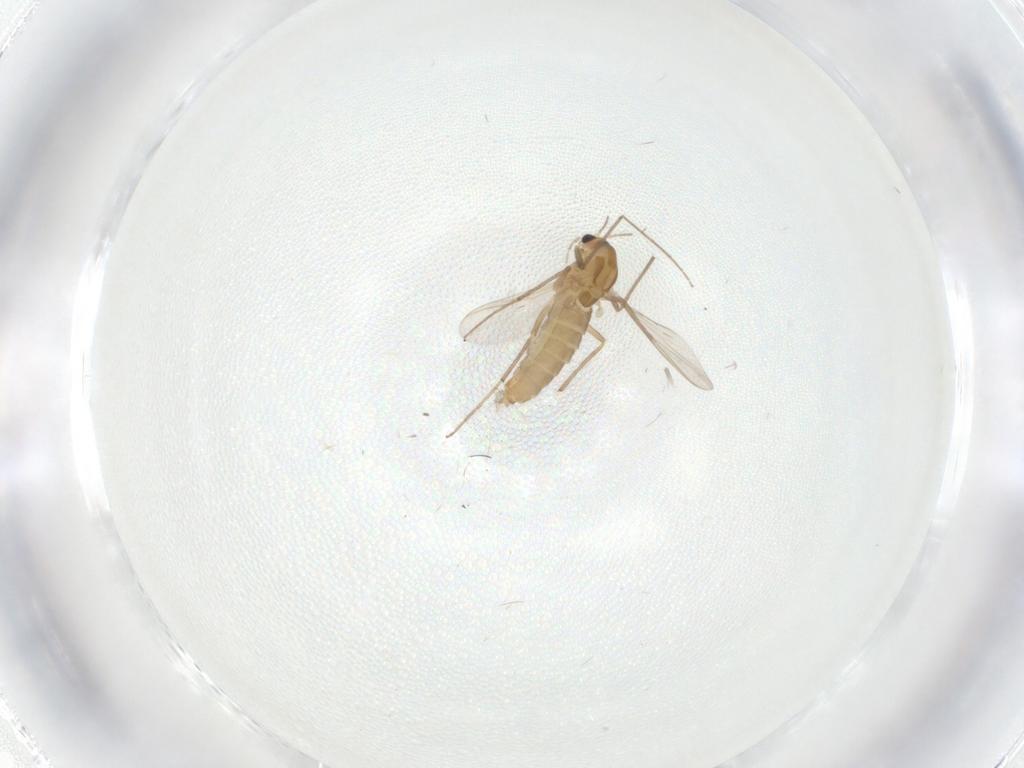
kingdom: Animalia
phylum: Arthropoda
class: Insecta
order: Diptera
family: Chironomidae
